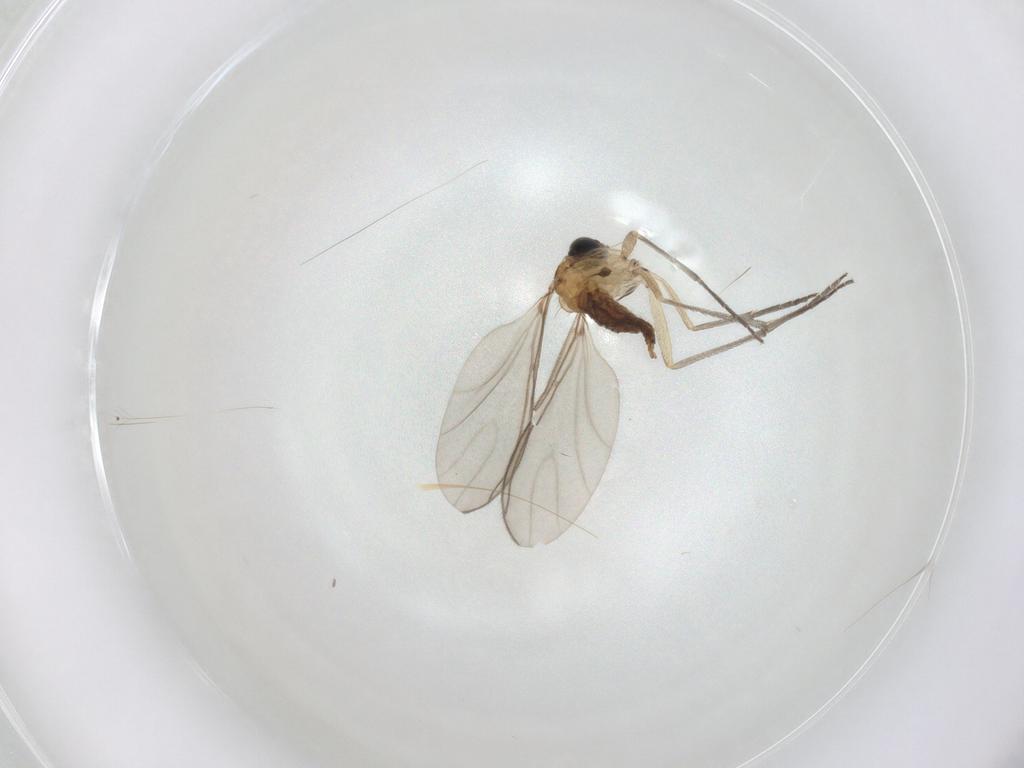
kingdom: Animalia
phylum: Arthropoda
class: Insecta
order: Diptera
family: Sciaridae
